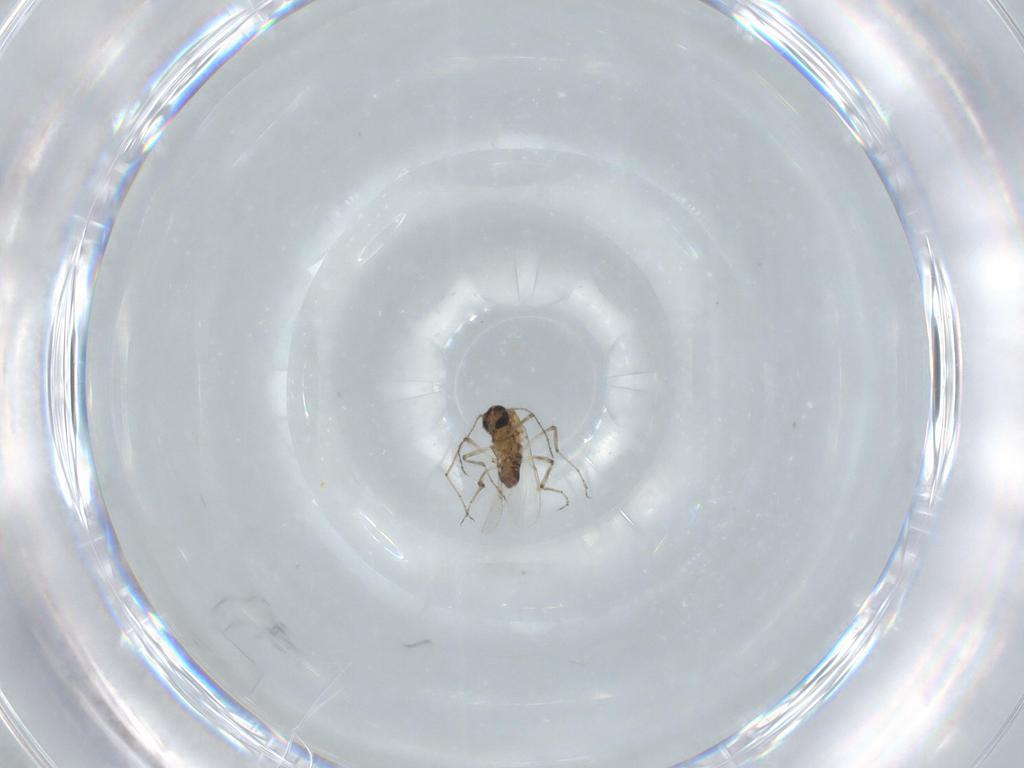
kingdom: Animalia
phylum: Arthropoda
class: Insecta
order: Diptera
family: Ceratopogonidae
